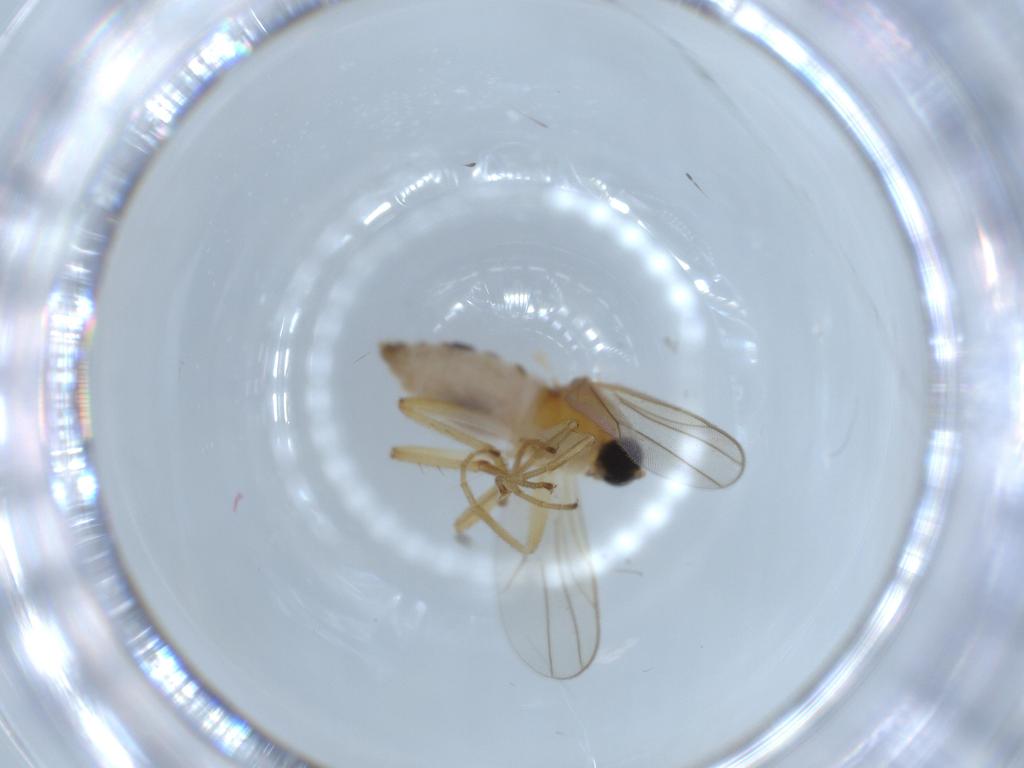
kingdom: Animalia
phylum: Arthropoda
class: Insecta
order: Diptera
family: Hybotidae
